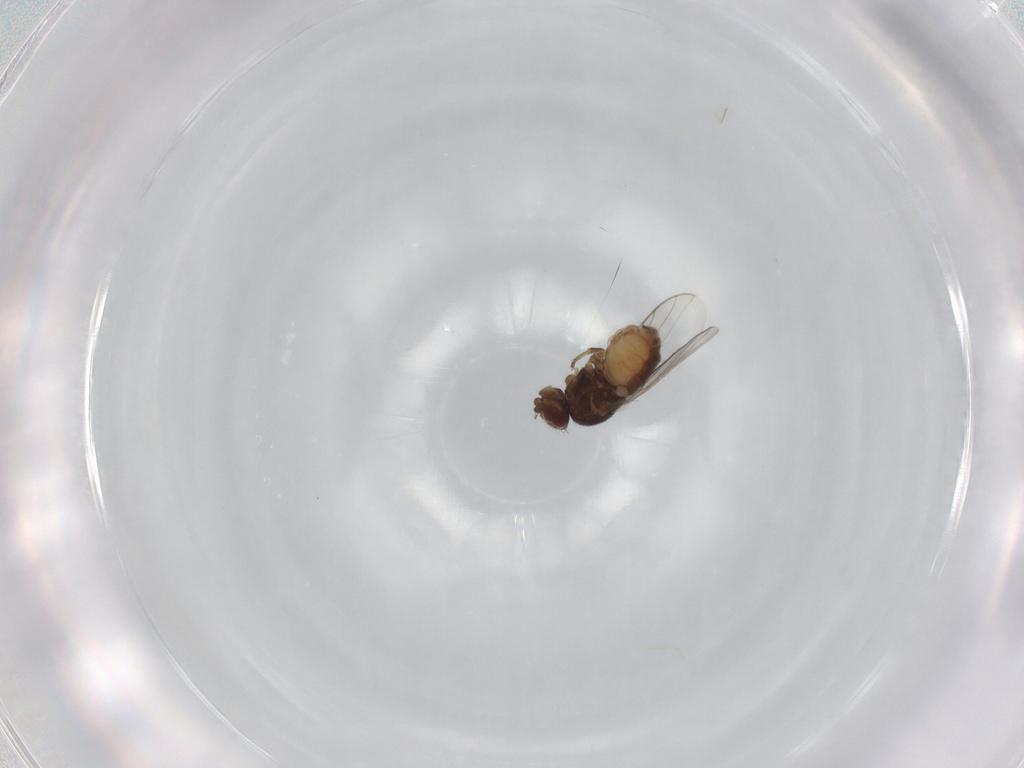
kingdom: Animalia
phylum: Arthropoda
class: Insecta
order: Diptera
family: Chloropidae
